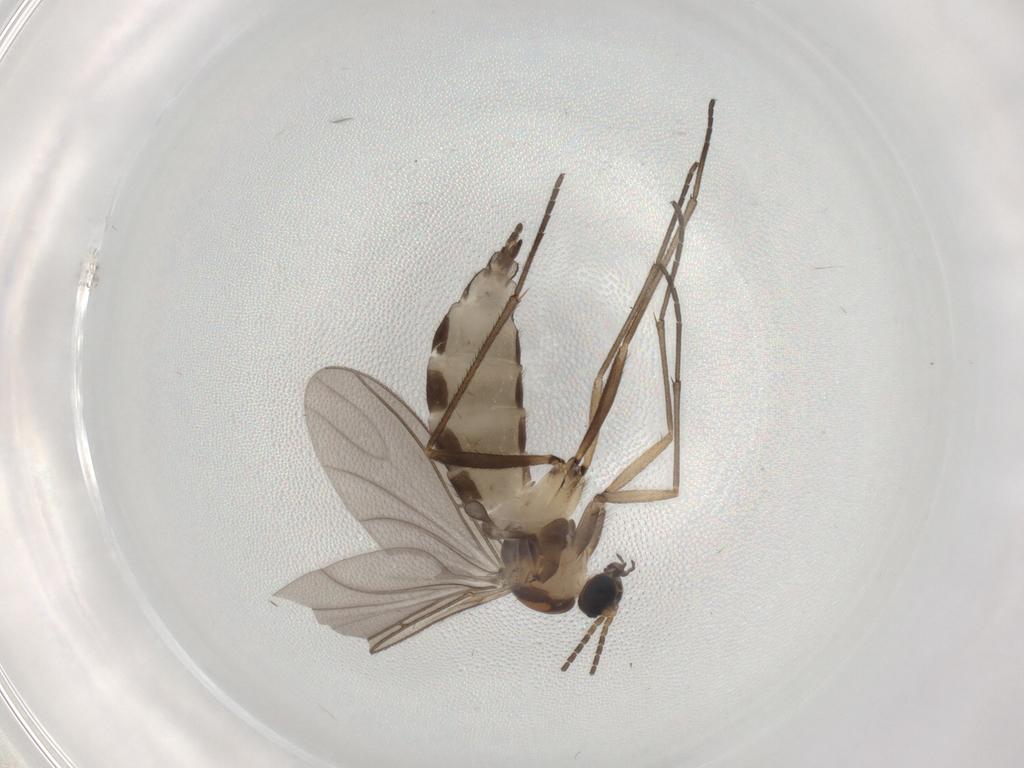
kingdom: Animalia
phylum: Arthropoda
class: Insecta
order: Diptera
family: Sciaridae
